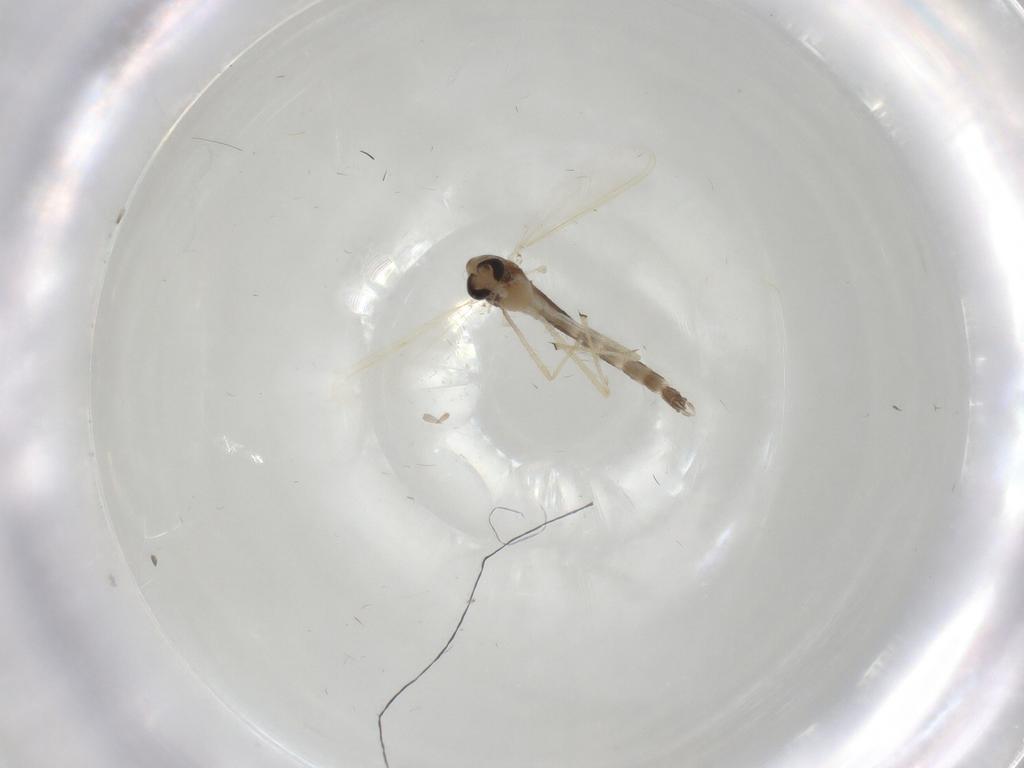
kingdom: Animalia
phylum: Arthropoda
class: Insecta
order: Diptera
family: Chironomidae
